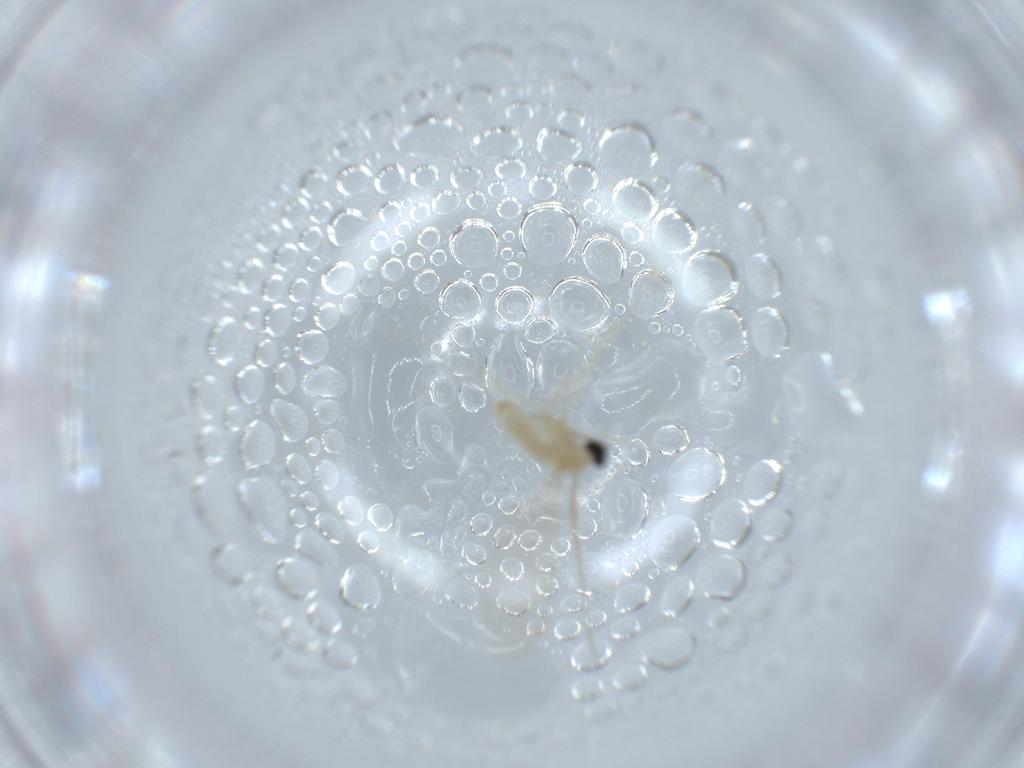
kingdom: Animalia
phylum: Arthropoda
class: Insecta
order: Diptera
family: Cecidomyiidae
